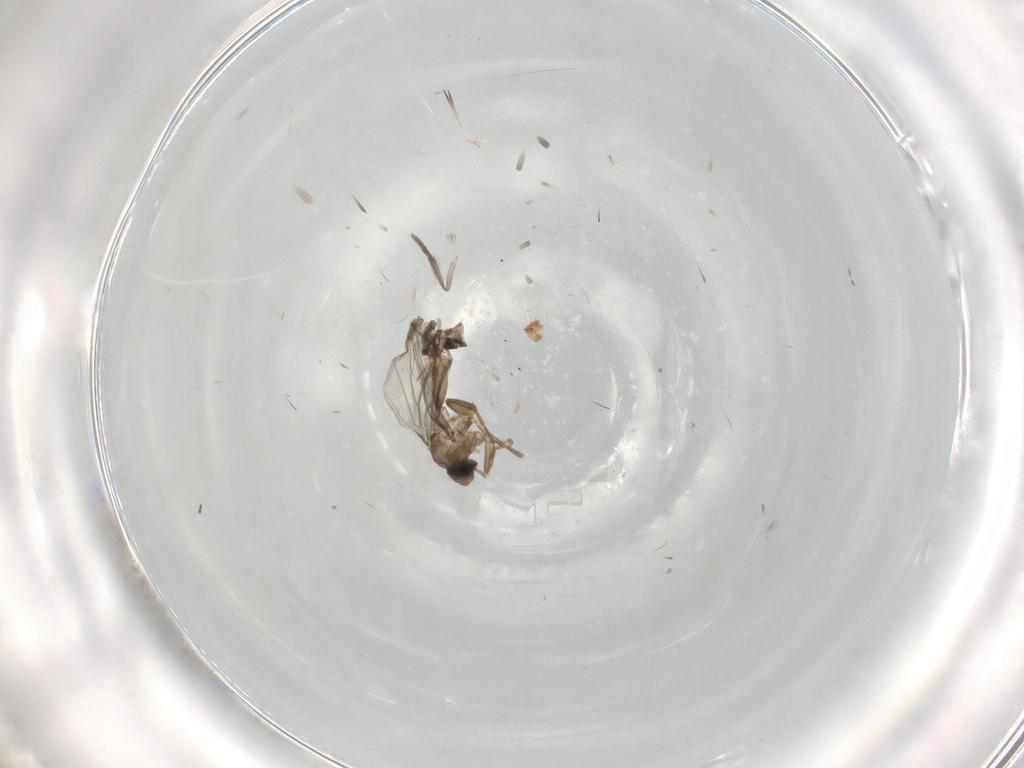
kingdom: Animalia
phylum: Arthropoda
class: Insecta
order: Diptera
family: Cecidomyiidae
